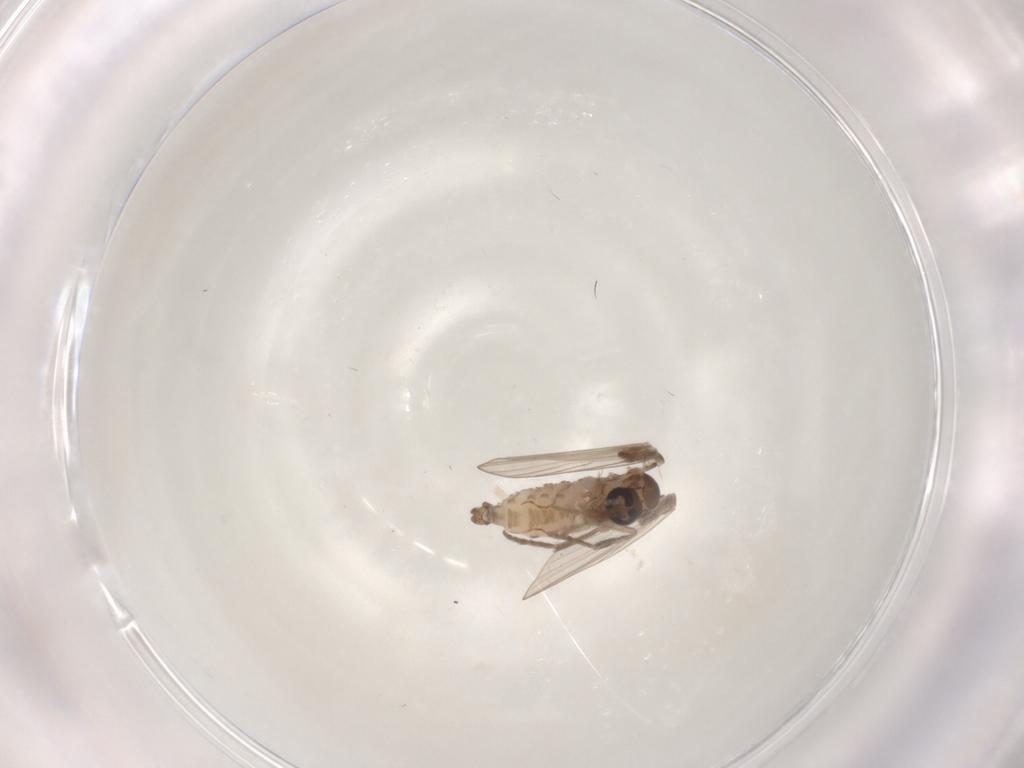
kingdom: Animalia
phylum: Arthropoda
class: Insecta
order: Diptera
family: Psychodidae
